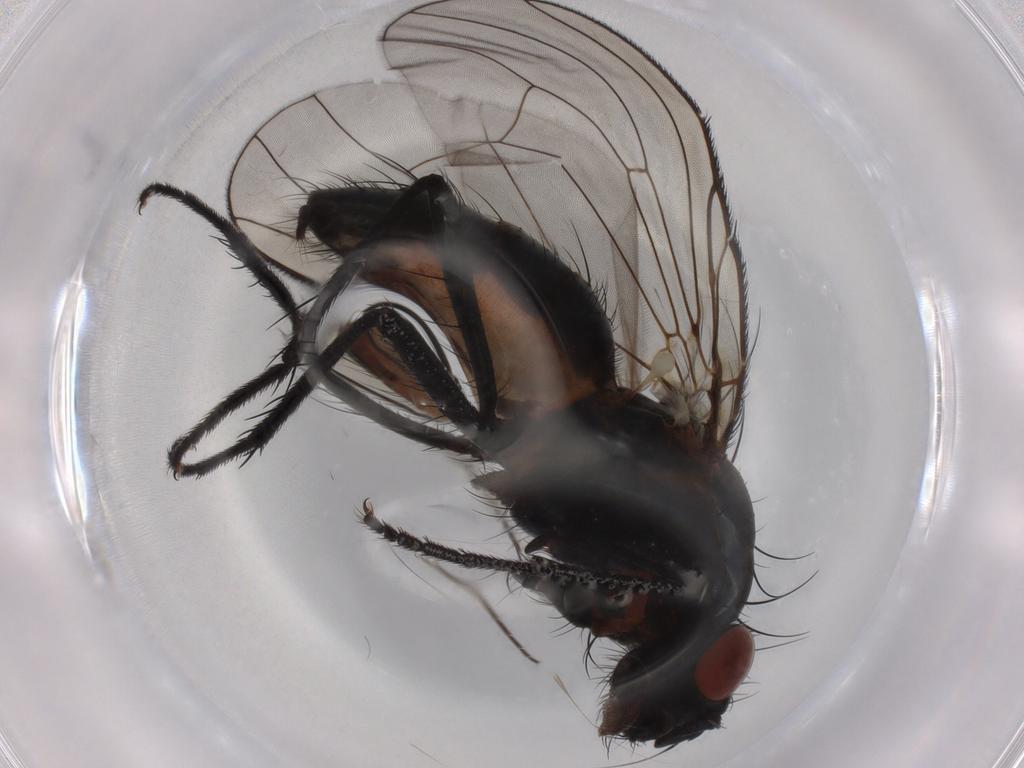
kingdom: Animalia
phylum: Arthropoda
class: Insecta
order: Diptera
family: Anthomyiidae
